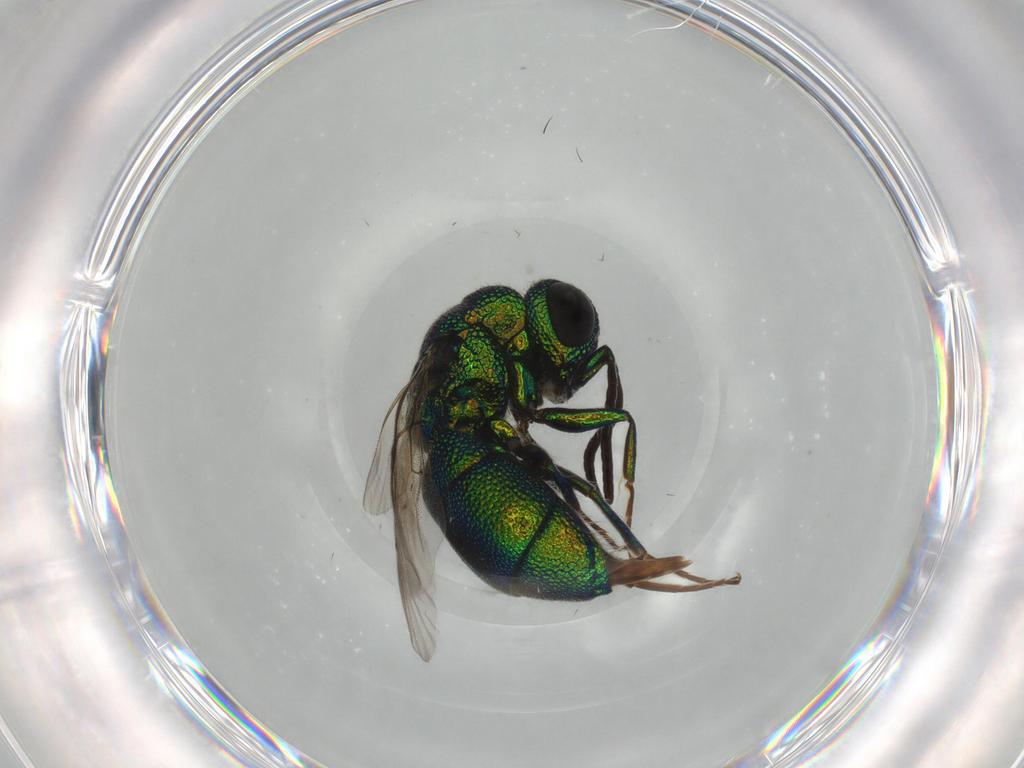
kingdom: Animalia
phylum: Arthropoda
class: Insecta
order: Hymenoptera
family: Chrysididae
